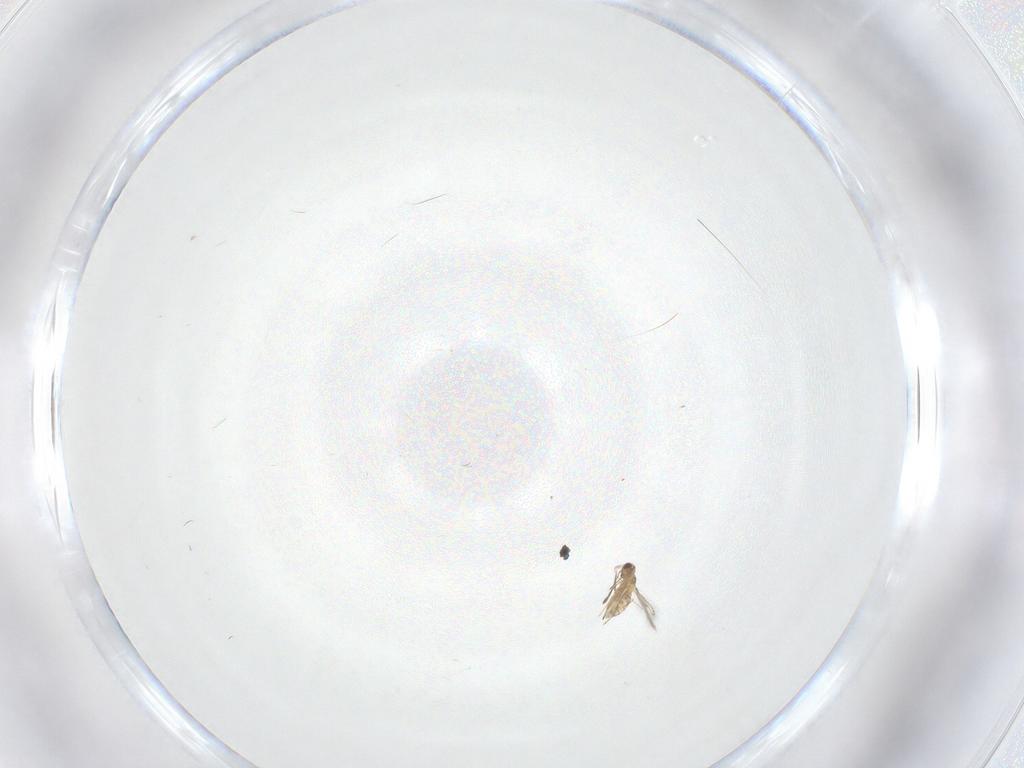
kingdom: Animalia
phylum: Arthropoda
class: Insecta
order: Hymenoptera
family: Mymaridae
